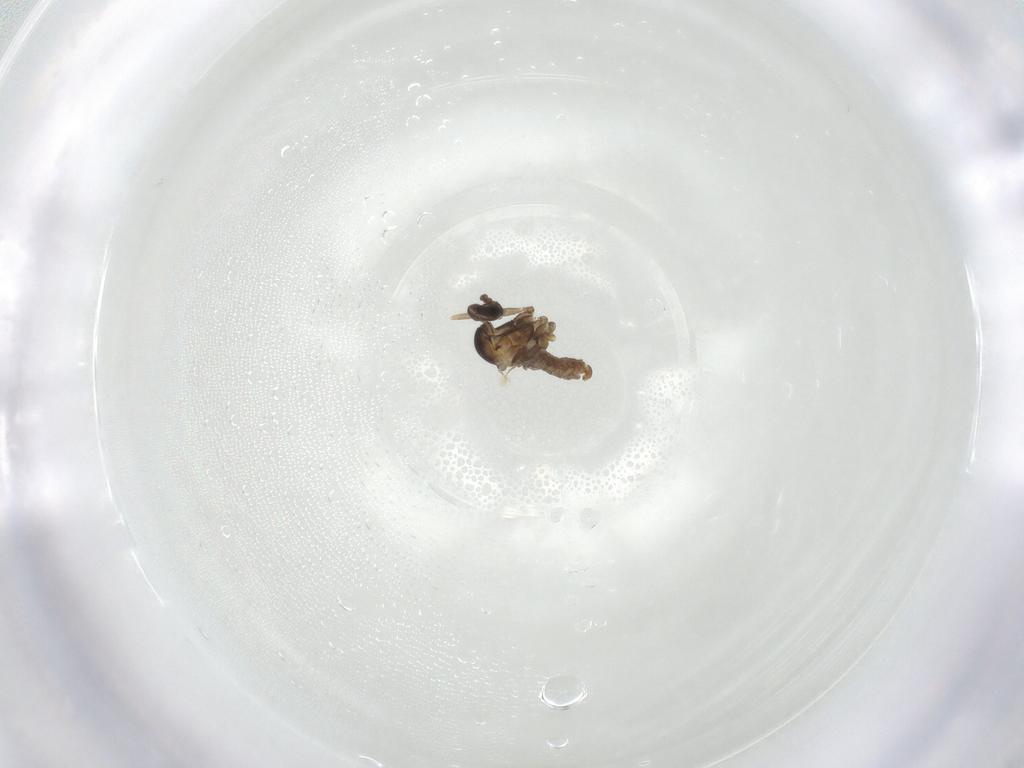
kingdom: Animalia
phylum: Arthropoda
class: Insecta
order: Diptera
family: Cecidomyiidae
